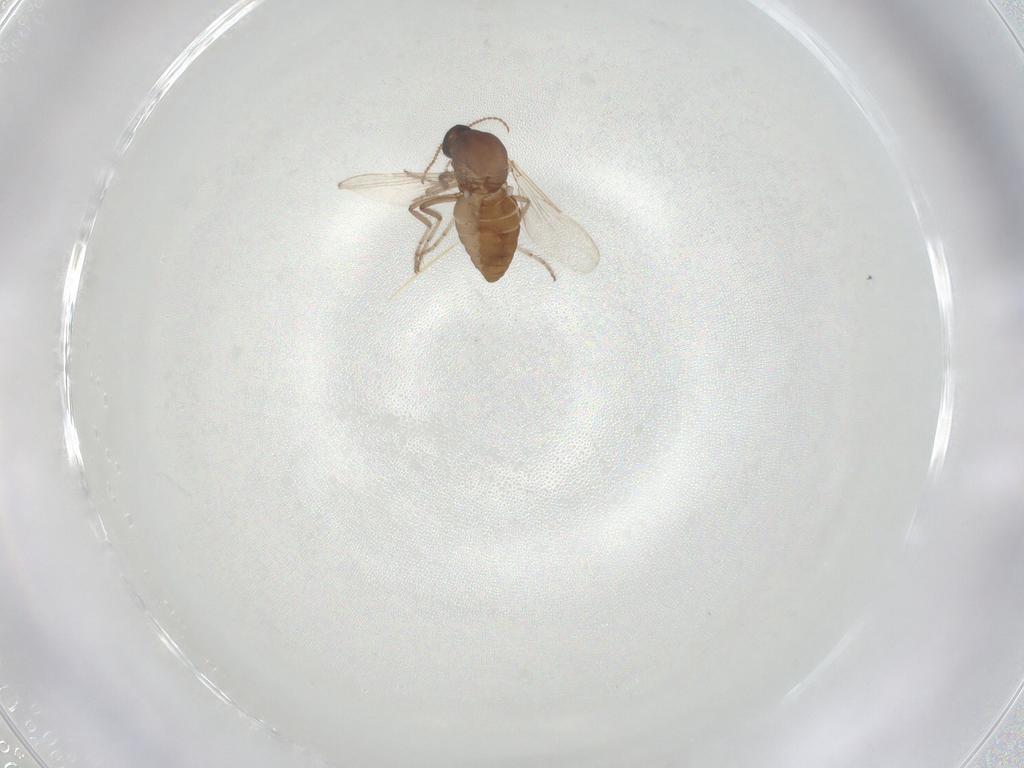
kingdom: Animalia
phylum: Arthropoda
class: Insecta
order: Diptera
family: Ceratopogonidae
